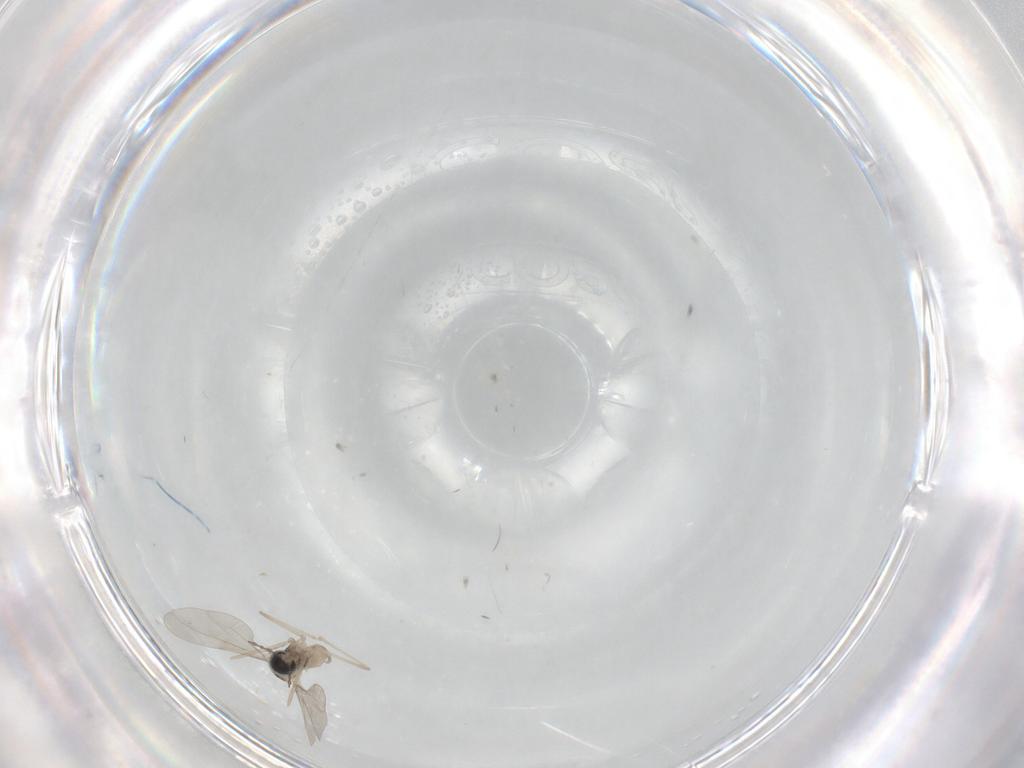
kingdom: Animalia
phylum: Arthropoda
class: Insecta
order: Diptera
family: Cecidomyiidae
